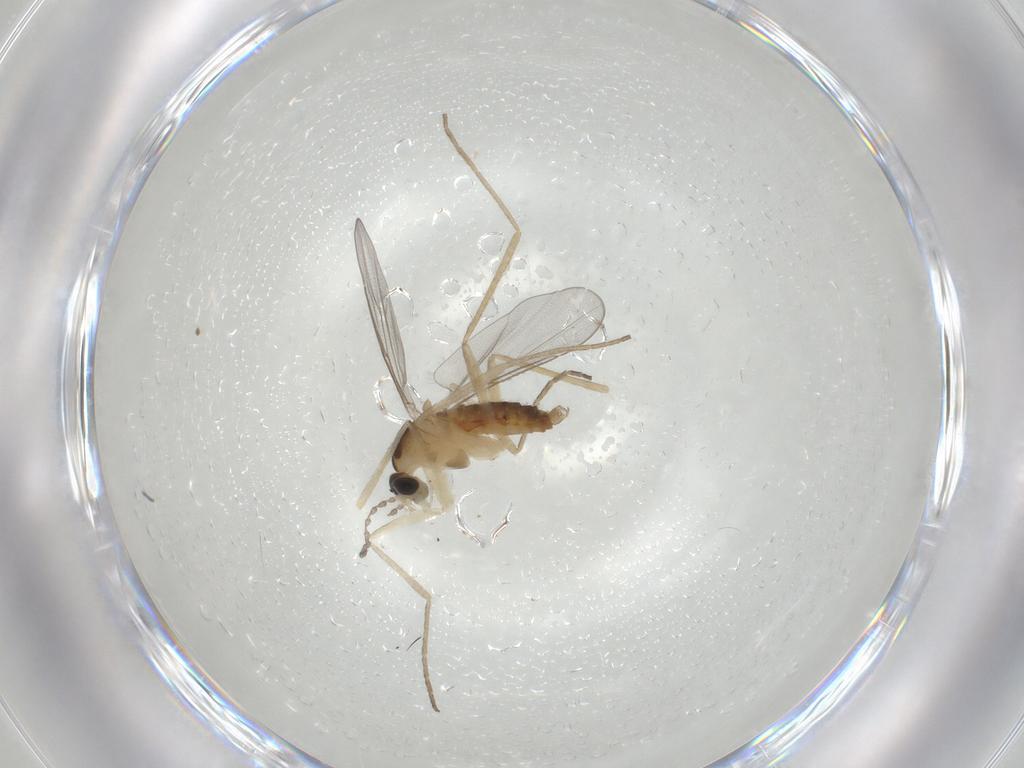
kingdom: Animalia
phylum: Arthropoda
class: Insecta
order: Diptera
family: Cecidomyiidae
